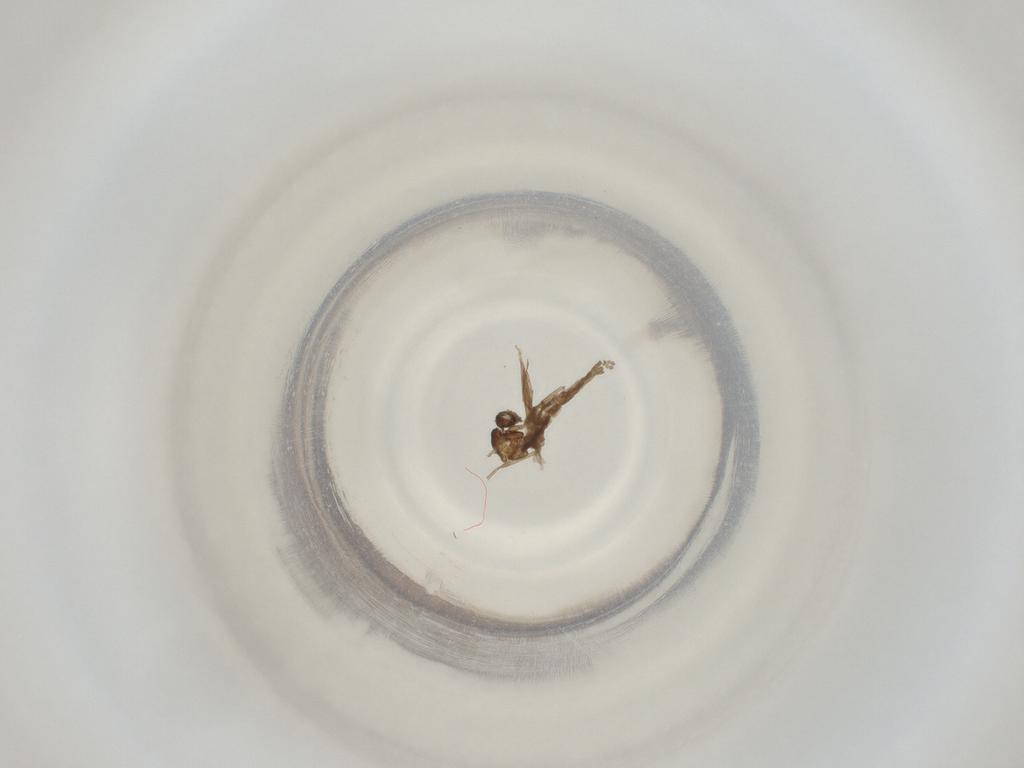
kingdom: Animalia
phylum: Arthropoda
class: Insecta
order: Diptera
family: Cecidomyiidae
